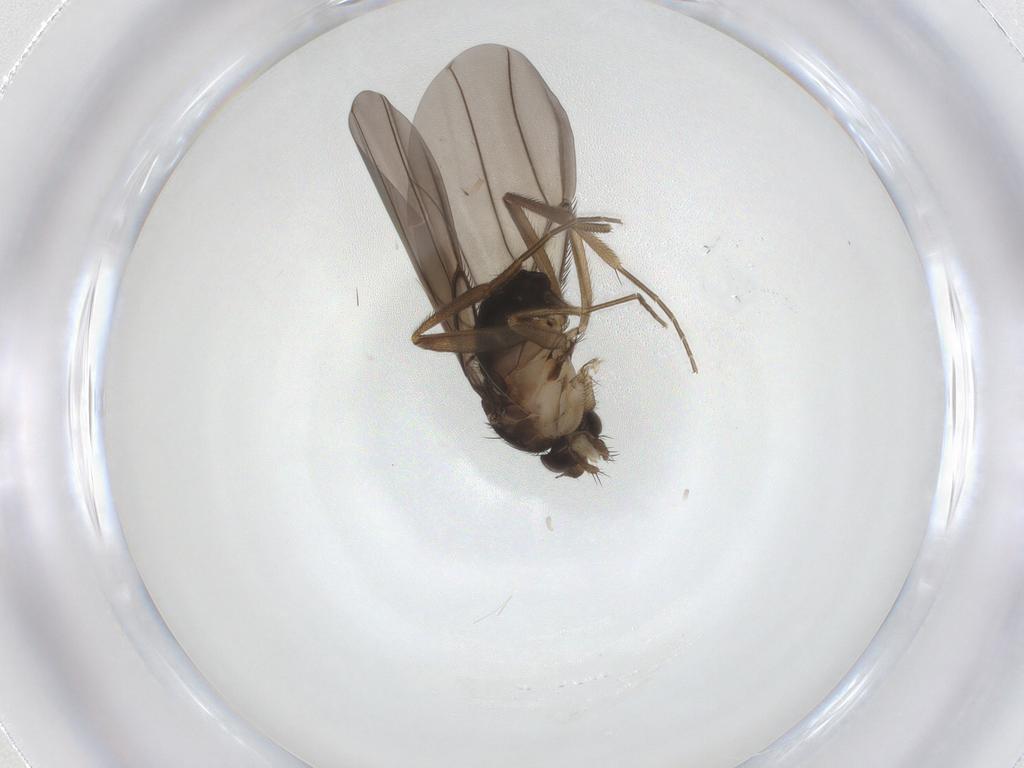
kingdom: Animalia
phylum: Arthropoda
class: Insecta
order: Diptera
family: Phoridae
